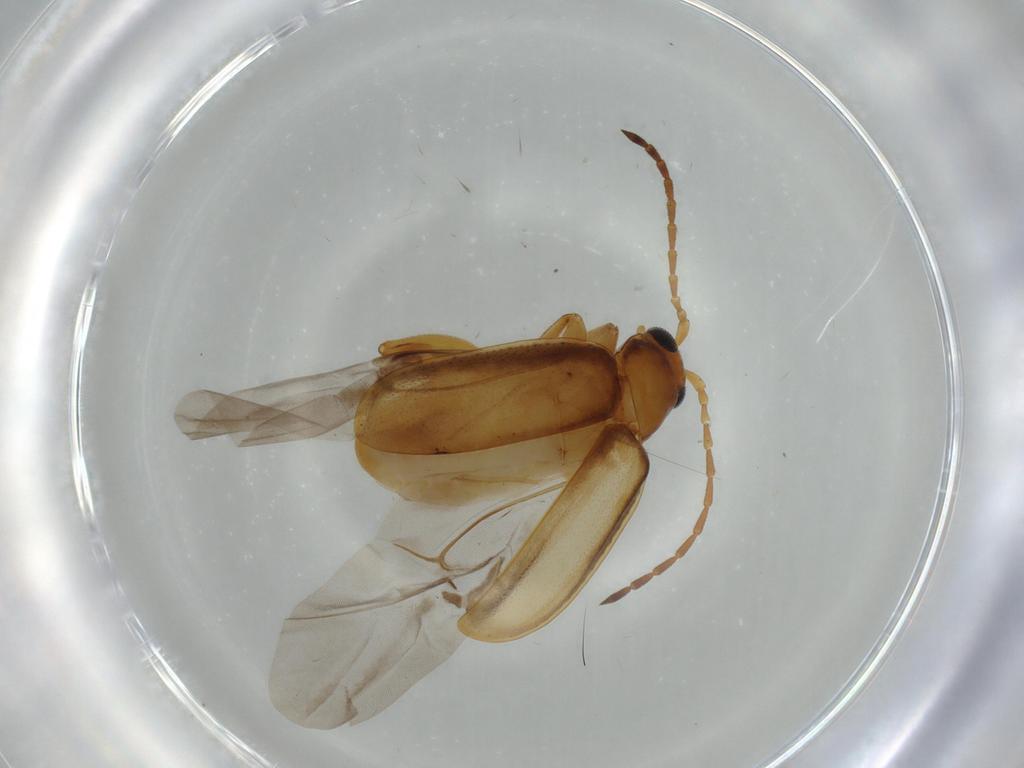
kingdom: Animalia
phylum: Arthropoda
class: Insecta
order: Coleoptera
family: Chrysomelidae
